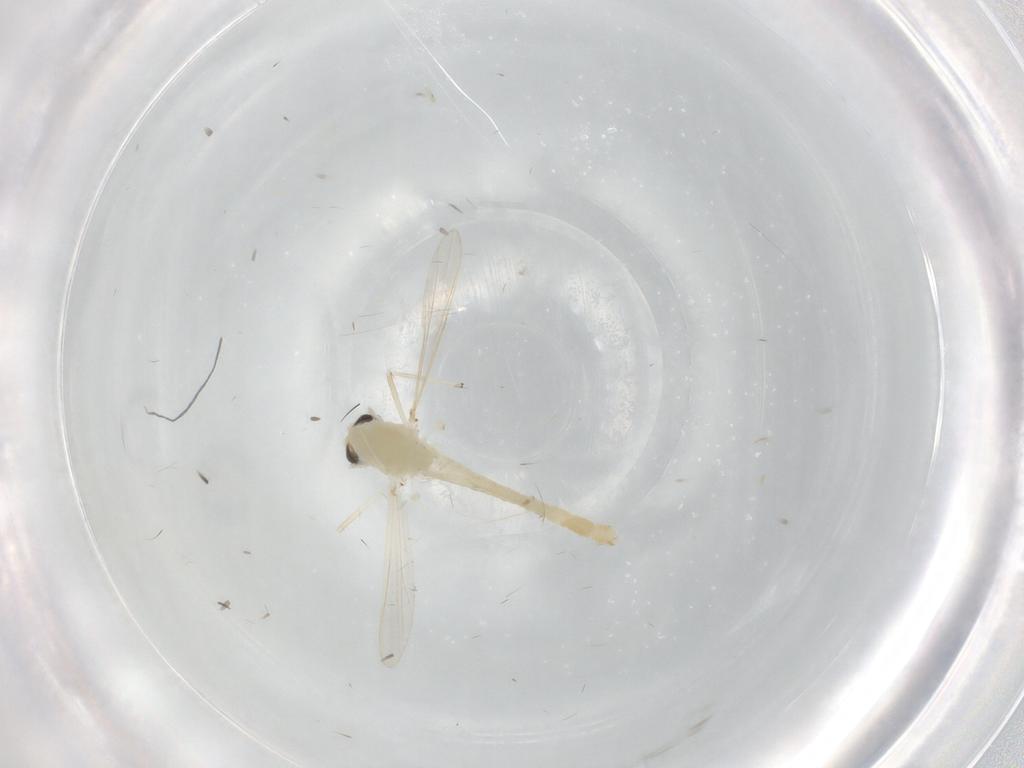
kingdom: Animalia
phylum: Arthropoda
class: Insecta
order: Diptera
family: Chironomidae
